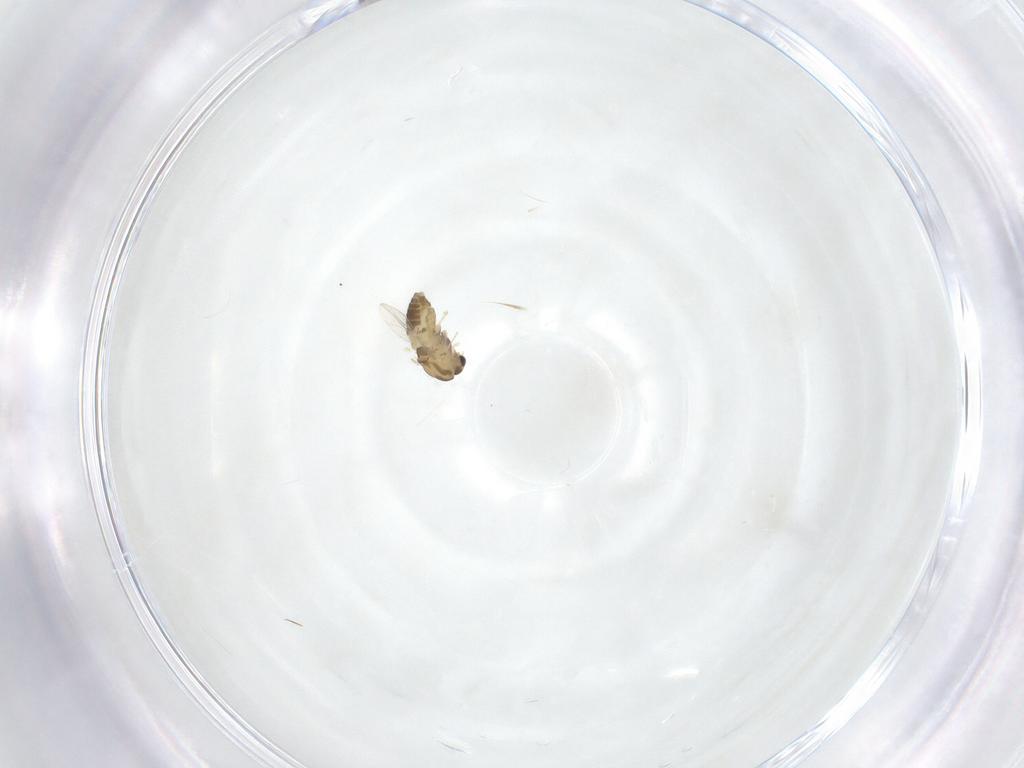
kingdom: Animalia
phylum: Arthropoda
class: Insecta
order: Diptera
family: Chironomidae
